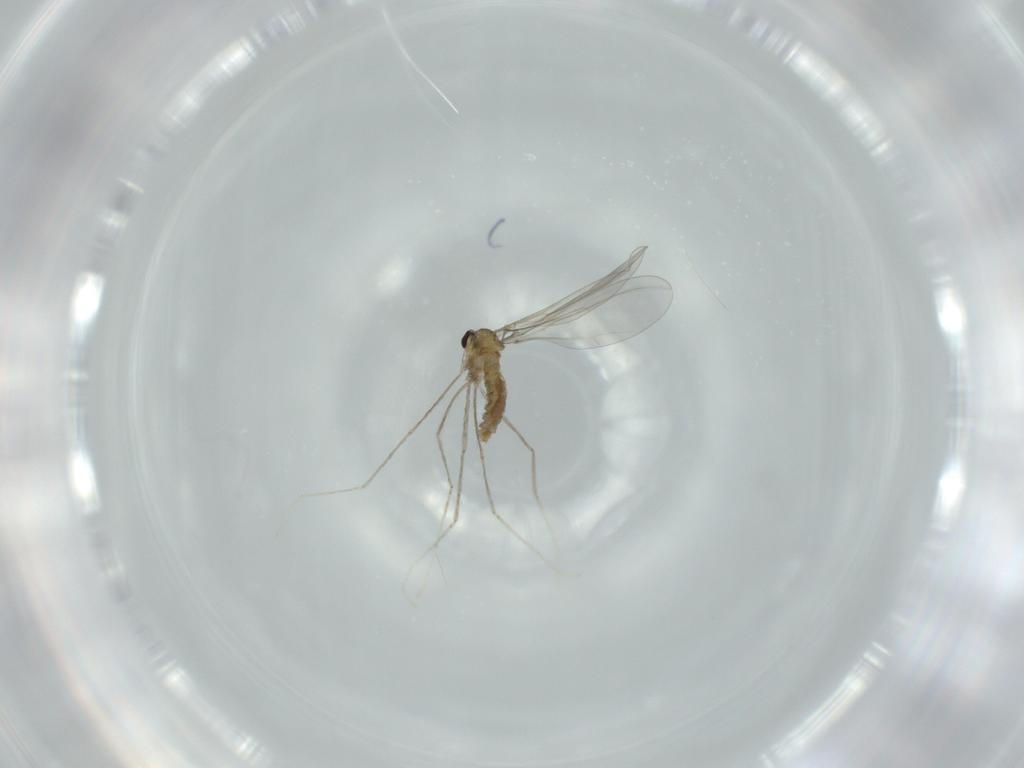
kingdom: Animalia
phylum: Arthropoda
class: Insecta
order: Diptera
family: Cecidomyiidae
